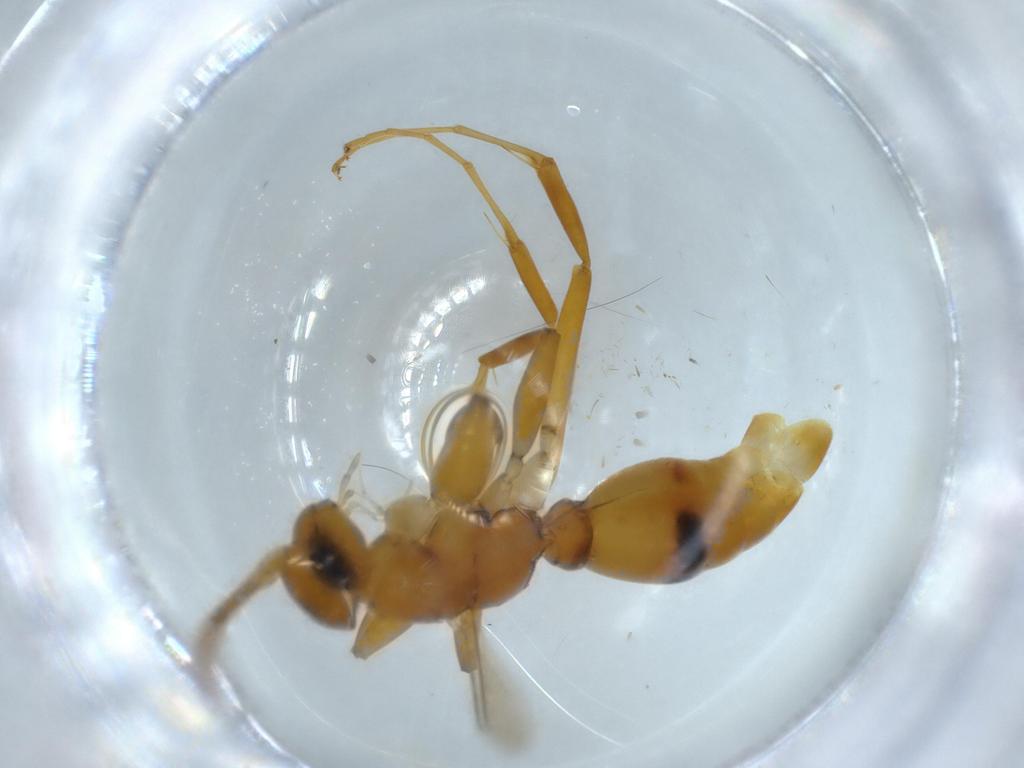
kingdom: Animalia
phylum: Arthropoda
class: Insecta
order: Hymenoptera
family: Rhopalosomatidae
